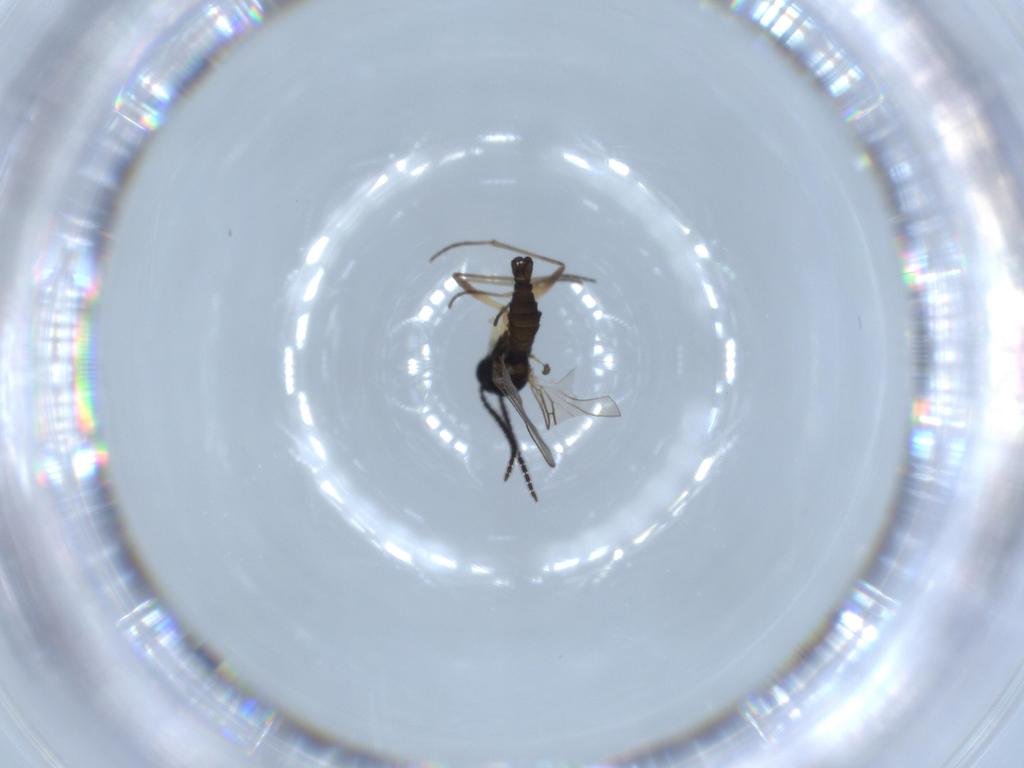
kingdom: Animalia
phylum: Arthropoda
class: Insecta
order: Diptera
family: Sciaridae
